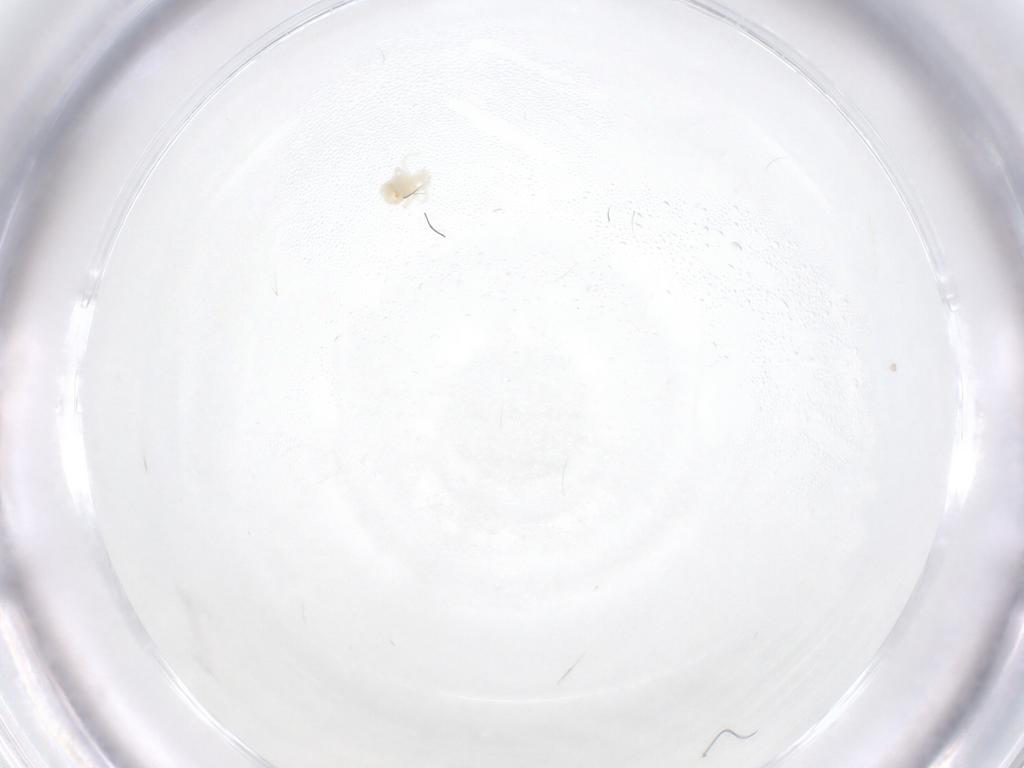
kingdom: Animalia
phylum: Arthropoda
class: Arachnida
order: Trombidiformes
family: Anystidae
